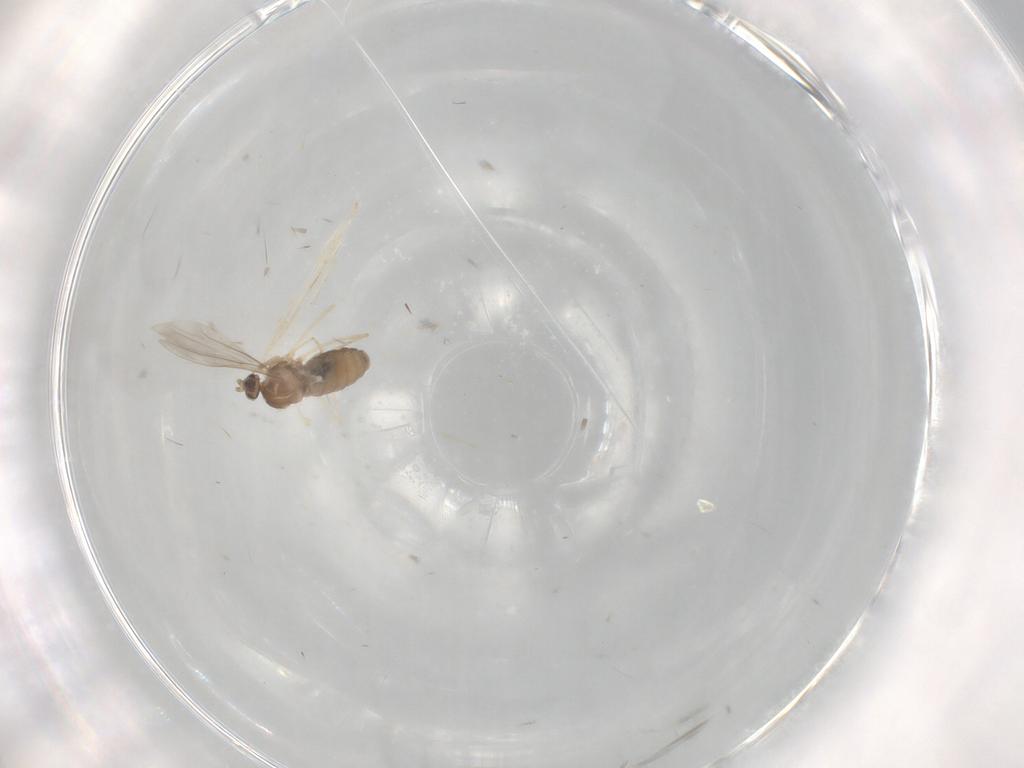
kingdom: Animalia
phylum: Arthropoda
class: Insecta
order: Diptera
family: Cecidomyiidae
